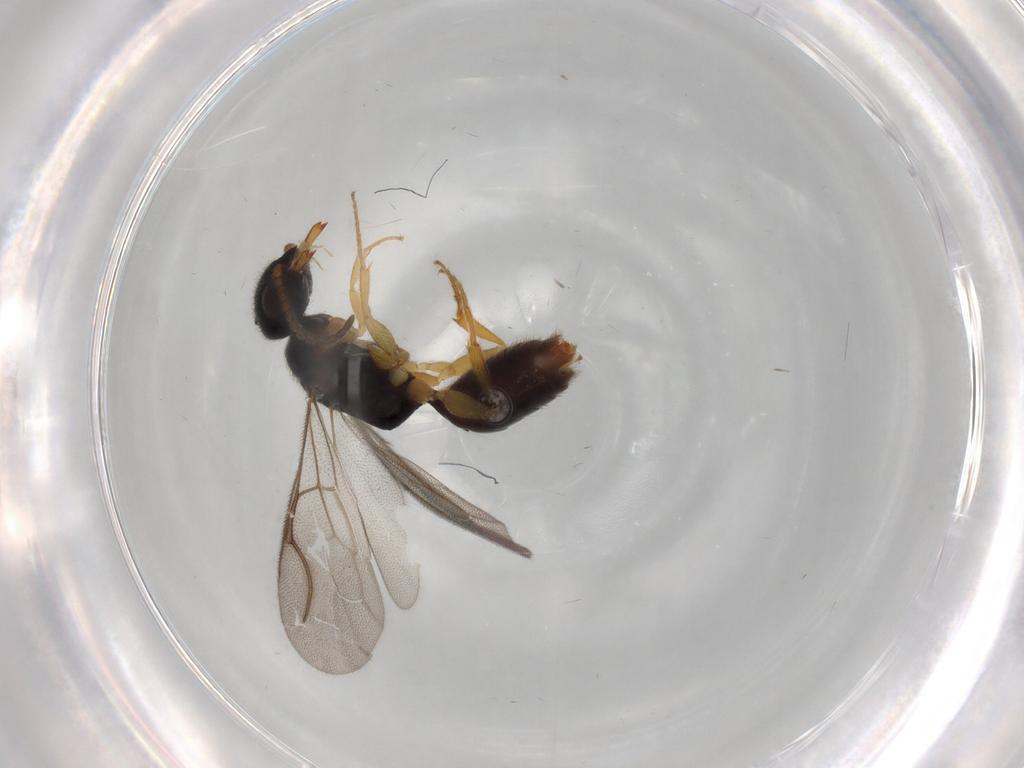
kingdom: Animalia
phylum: Arthropoda
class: Insecta
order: Hymenoptera
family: Bethylidae
